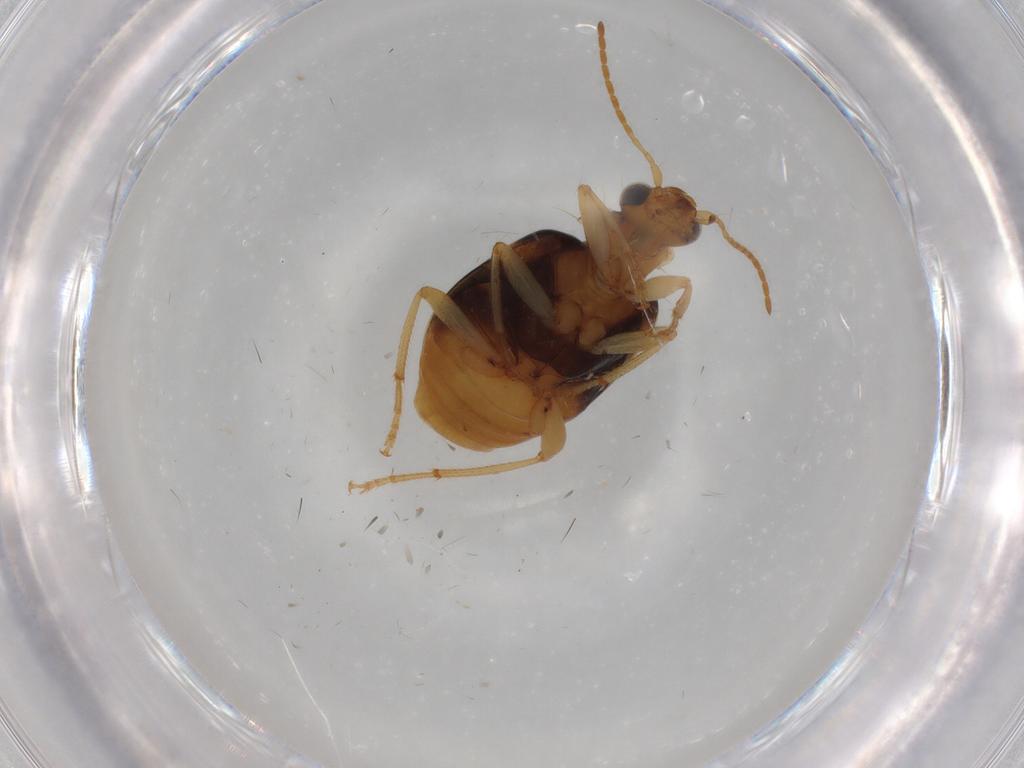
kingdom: Animalia
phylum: Arthropoda
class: Insecta
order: Coleoptera
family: Carabidae
